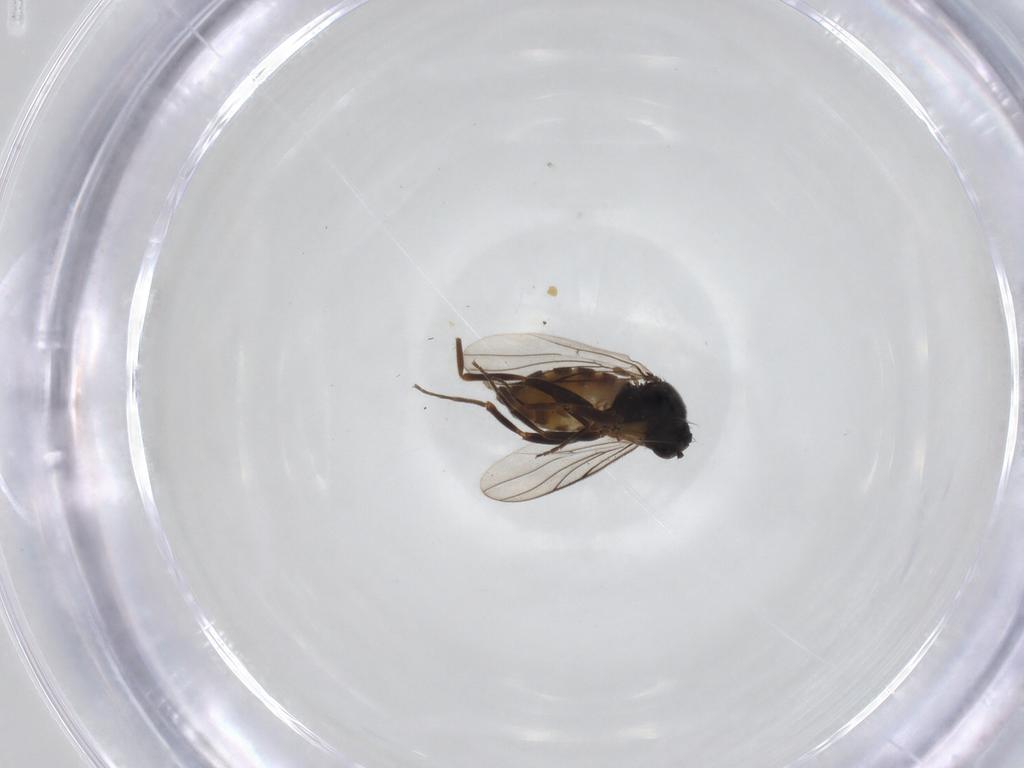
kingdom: Animalia
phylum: Arthropoda
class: Insecta
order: Diptera
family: Hybotidae
